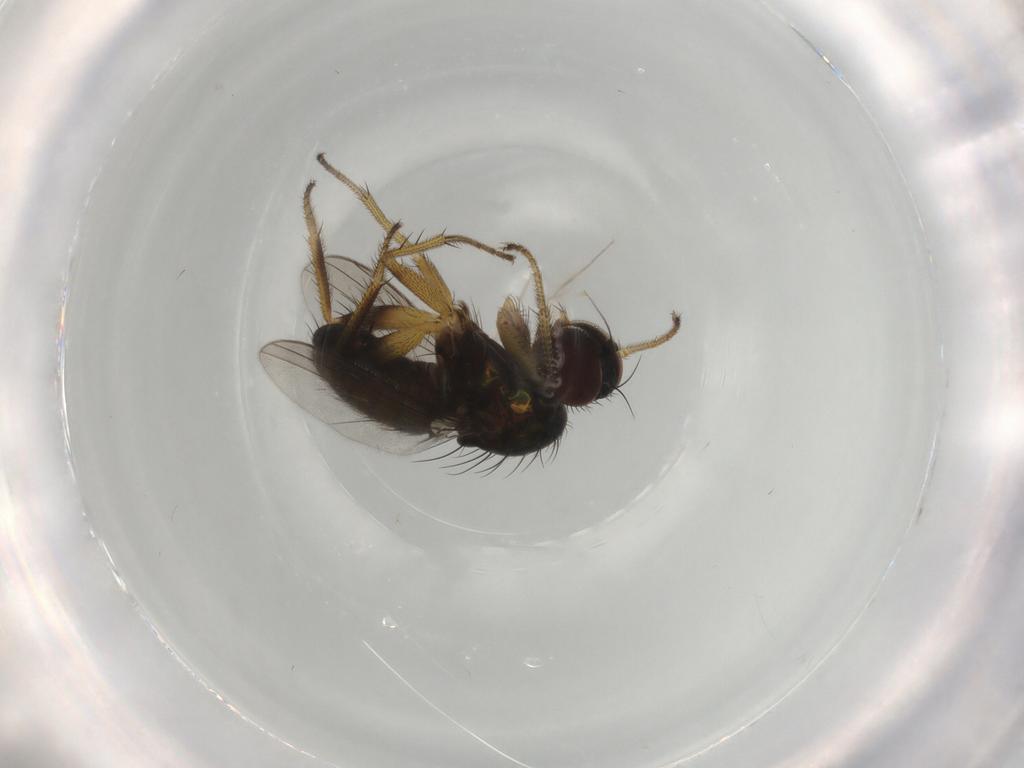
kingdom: Animalia
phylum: Arthropoda
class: Insecta
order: Diptera
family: Dolichopodidae
